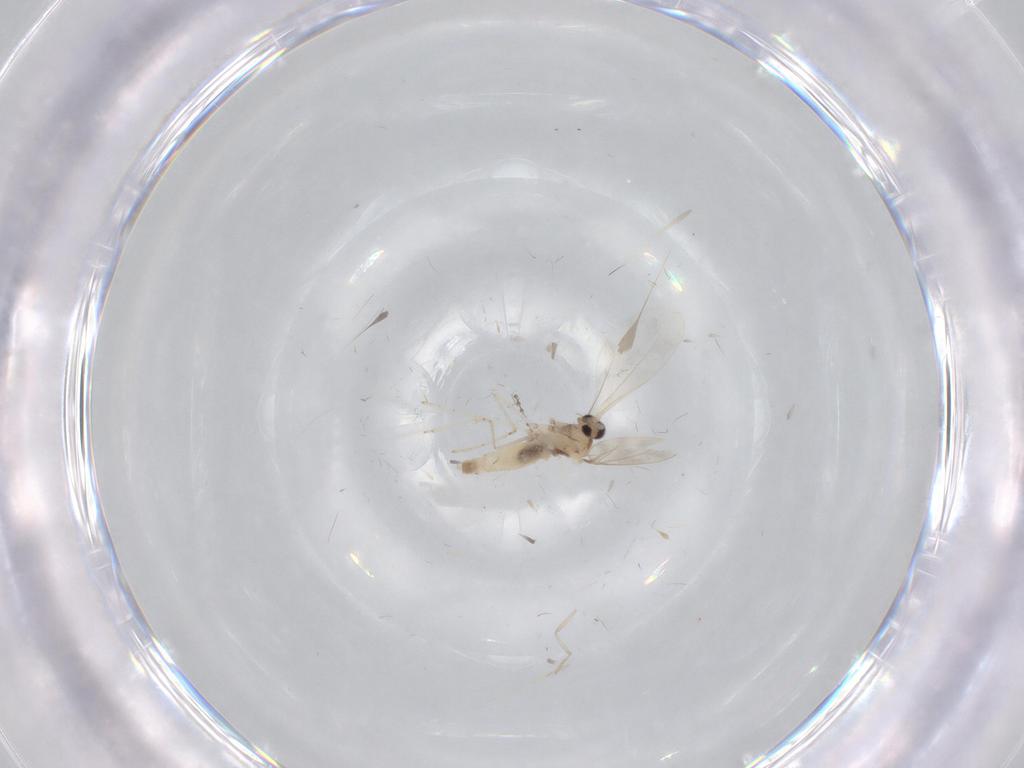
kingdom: Animalia
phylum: Arthropoda
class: Insecta
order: Diptera
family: Cecidomyiidae
